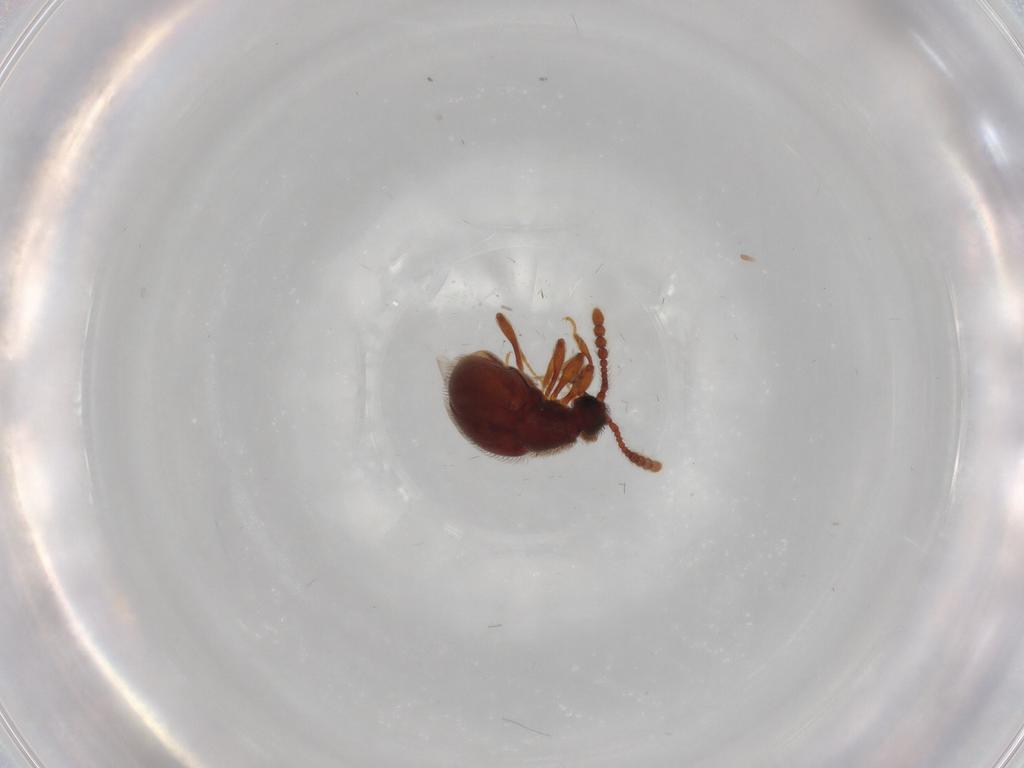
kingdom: Animalia
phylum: Arthropoda
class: Insecta
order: Coleoptera
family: Staphylinidae
